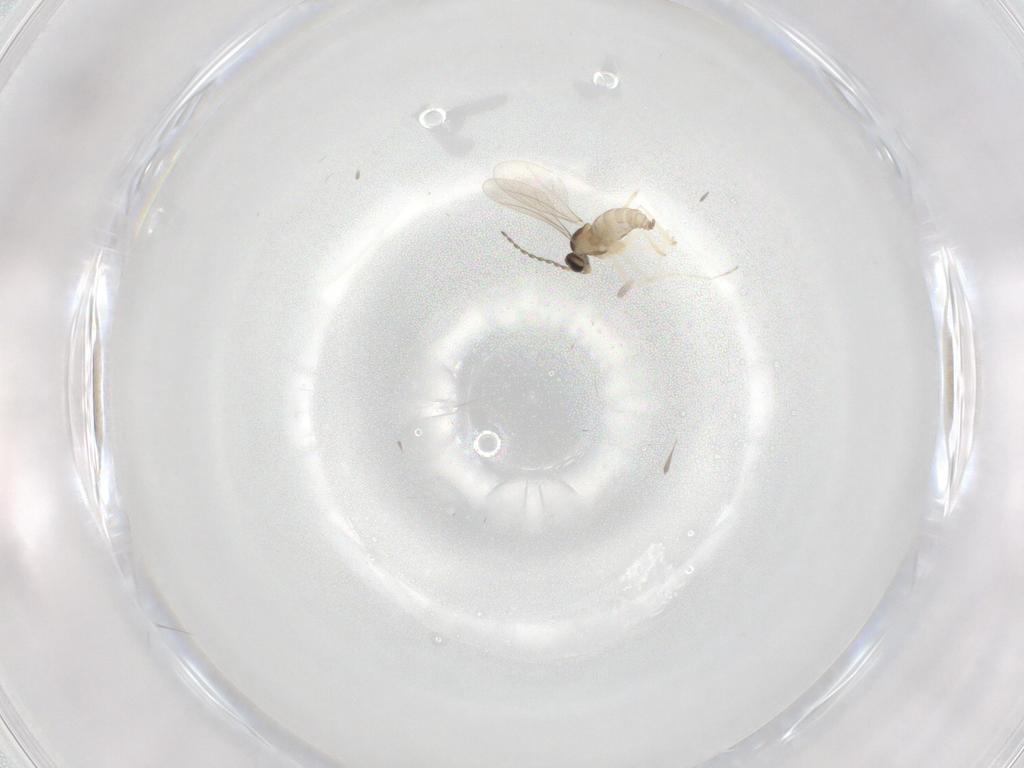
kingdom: Animalia
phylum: Arthropoda
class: Insecta
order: Diptera
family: Cecidomyiidae
